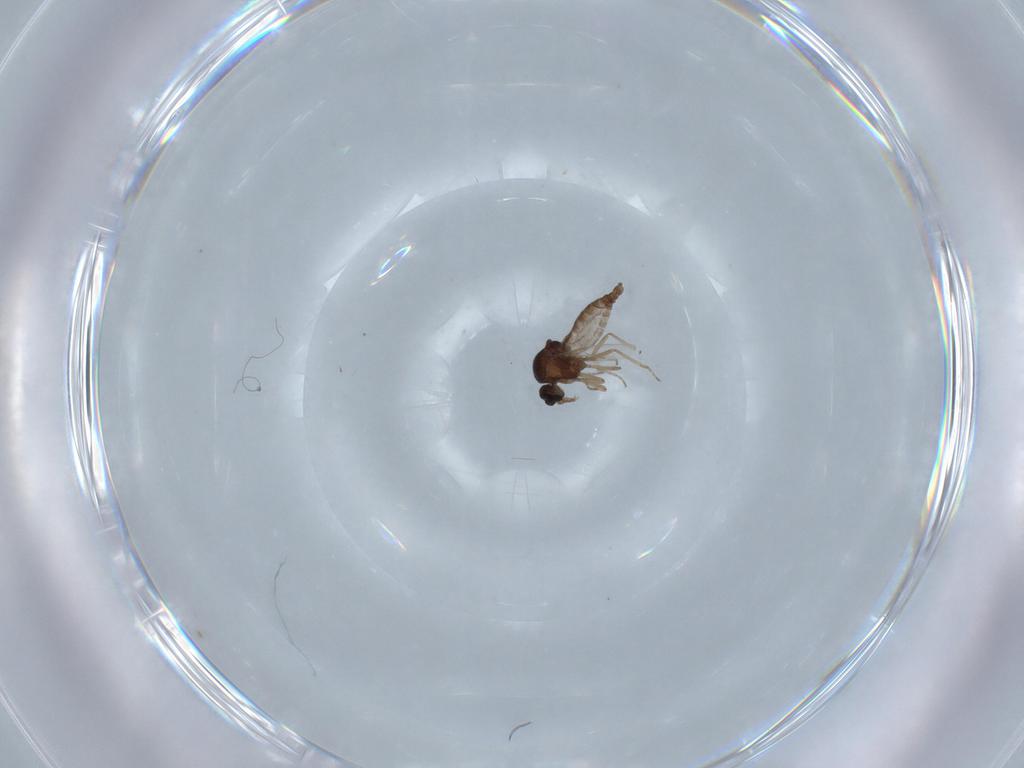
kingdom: Animalia
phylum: Arthropoda
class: Insecta
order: Diptera
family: Ceratopogonidae
